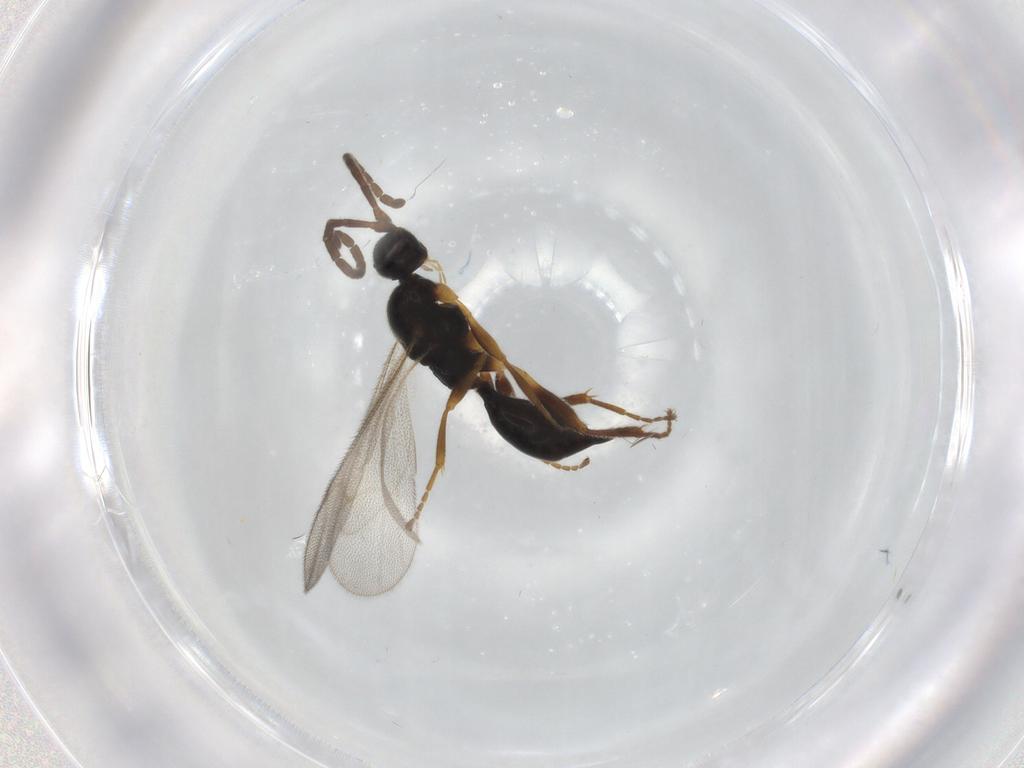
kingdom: Animalia
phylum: Arthropoda
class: Insecta
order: Hymenoptera
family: Proctotrupidae
